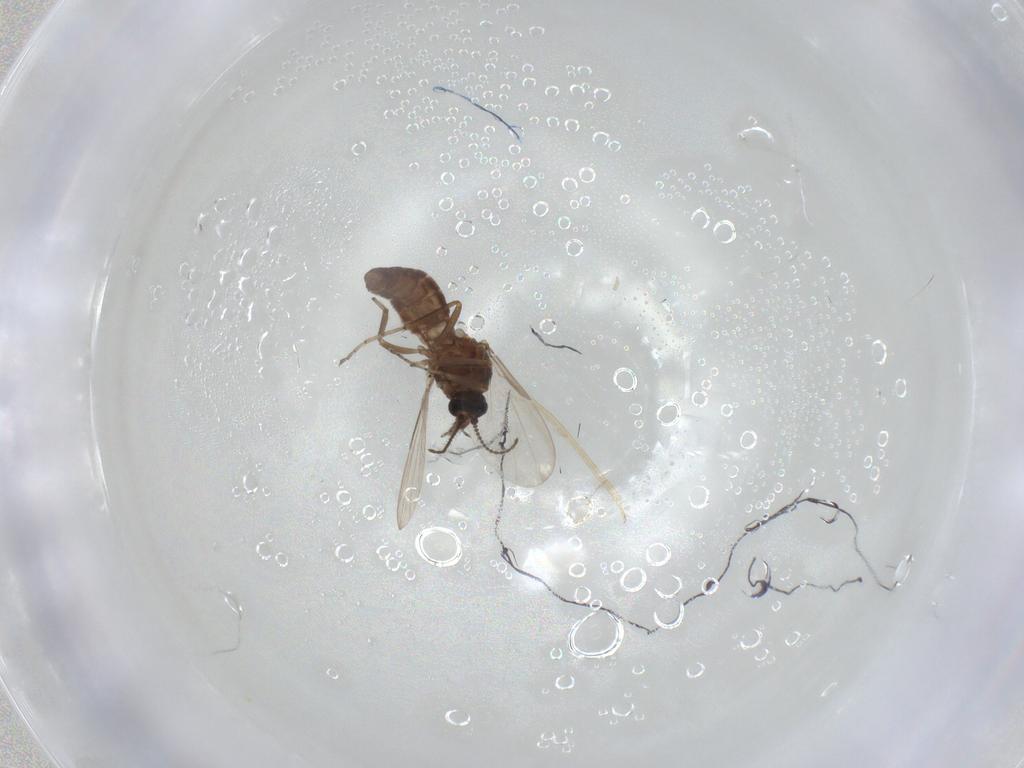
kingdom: Animalia
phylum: Arthropoda
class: Insecta
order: Diptera
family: Ceratopogonidae
